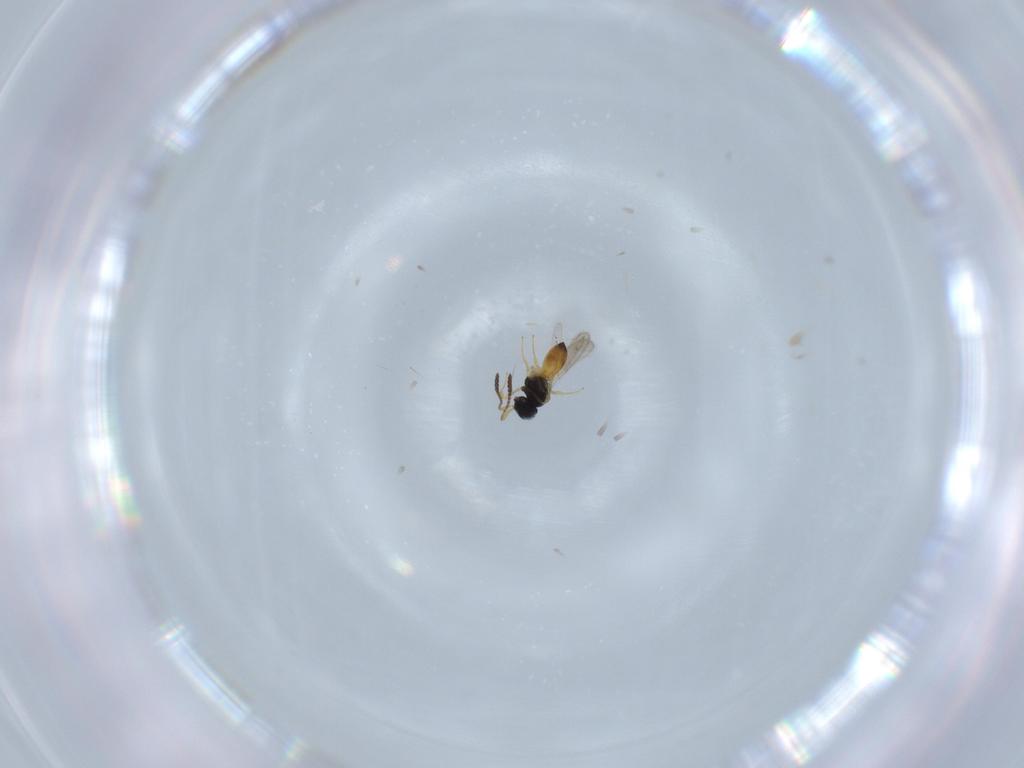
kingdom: Animalia
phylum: Arthropoda
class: Insecta
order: Hymenoptera
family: Scelionidae
